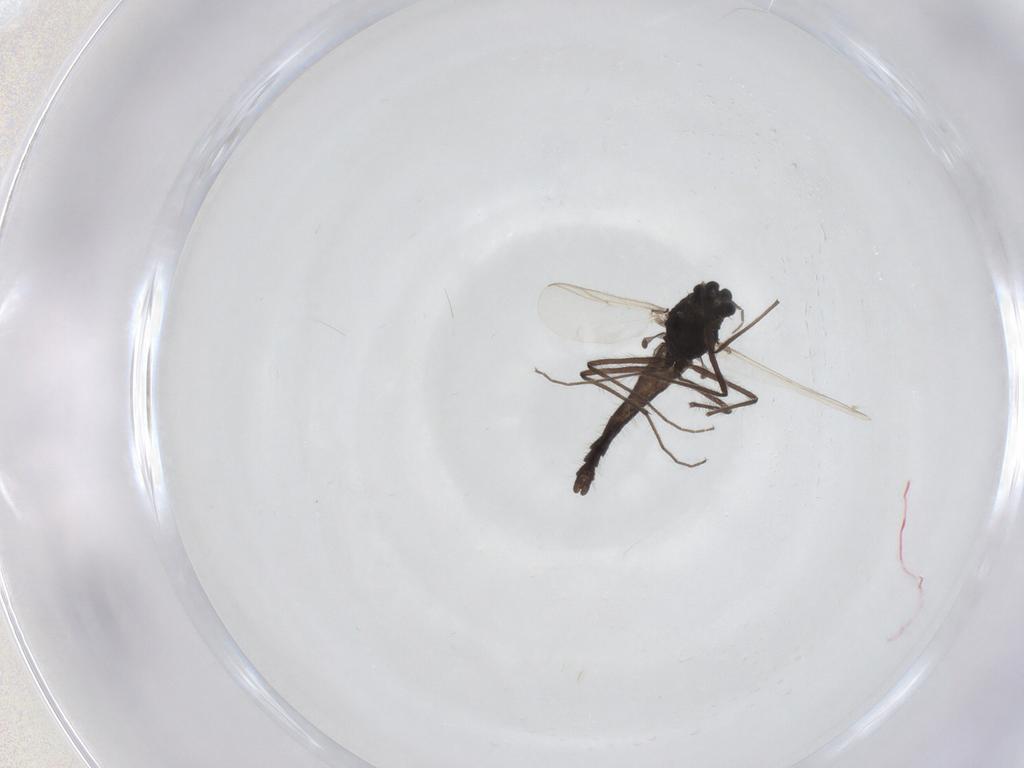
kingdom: Animalia
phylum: Arthropoda
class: Insecta
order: Diptera
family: Chironomidae
